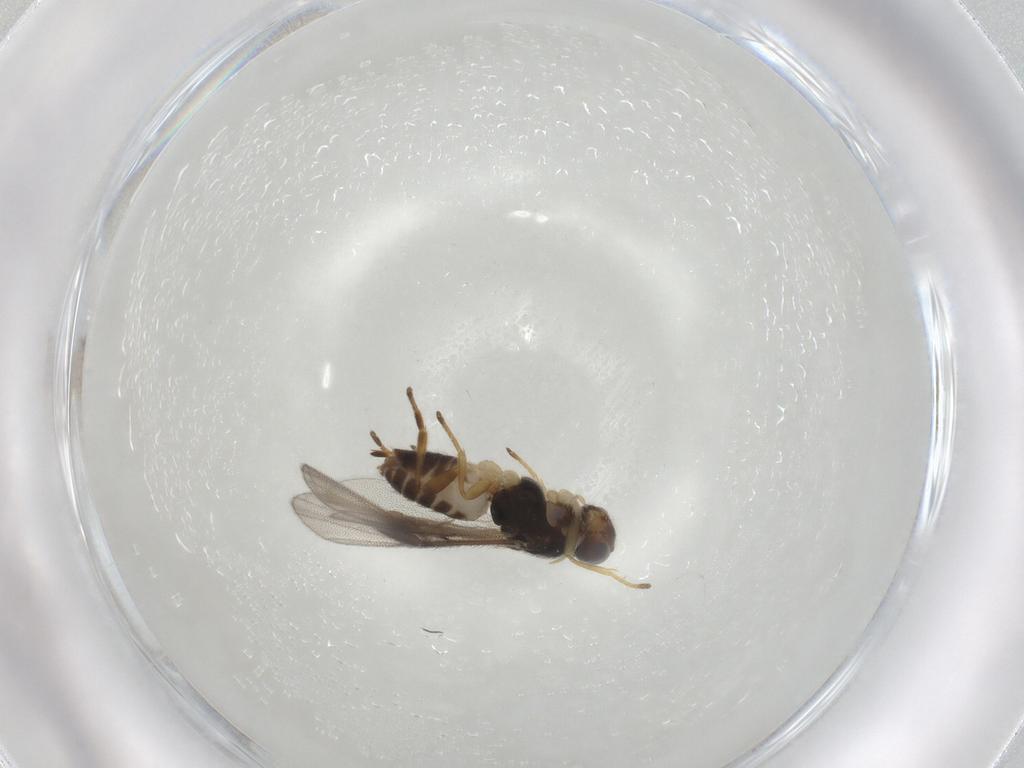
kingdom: Animalia
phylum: Arthropoda
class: Insecta
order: Hymenoptera
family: Braconidae
